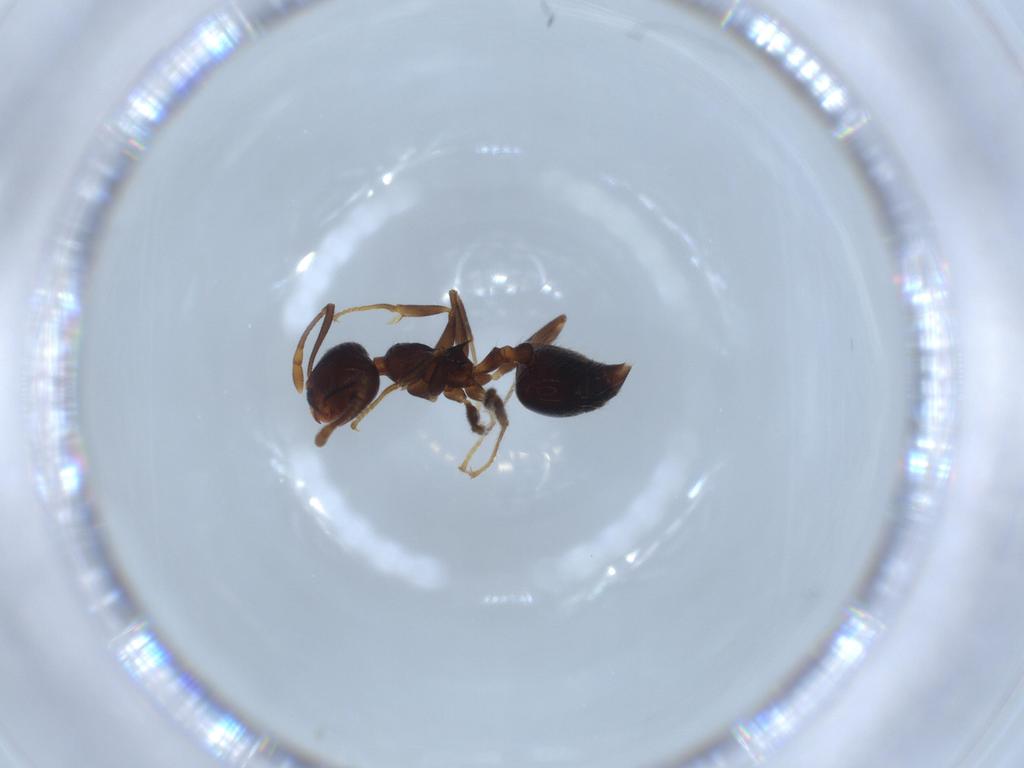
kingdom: Animalia
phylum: Arthropoda
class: Insecta
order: Hymenoptera
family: Formicidae
